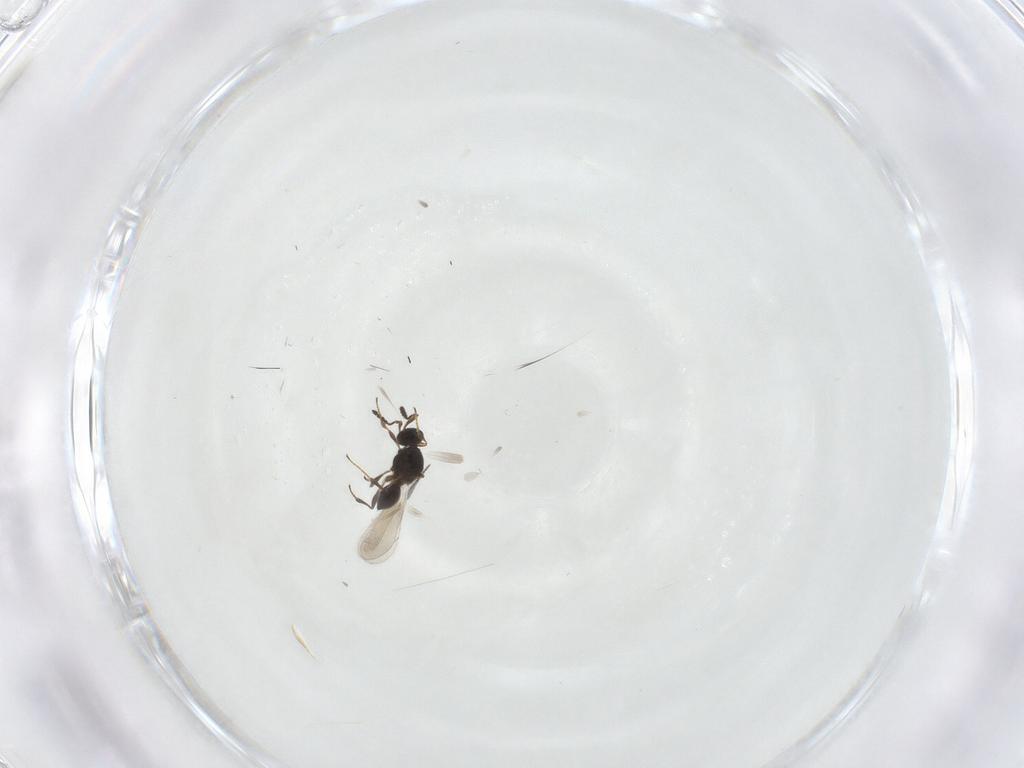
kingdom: Animalia
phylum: Arthropoda
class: Insecta
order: Hymenoptera
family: Platygastridae
